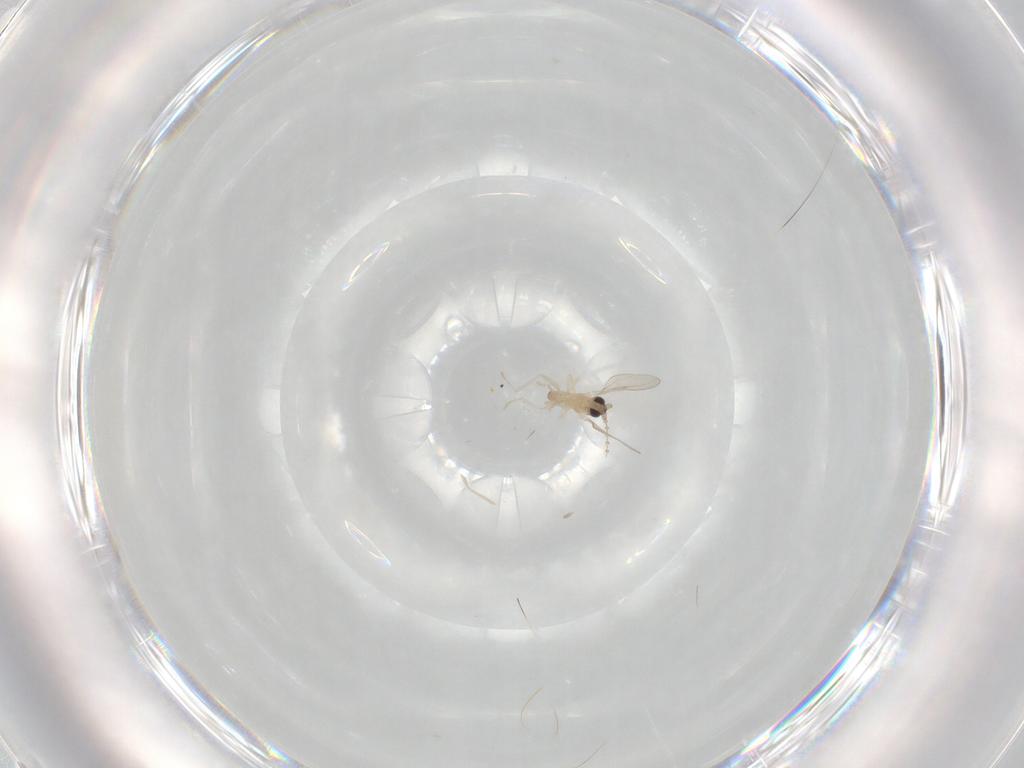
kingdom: Animalia
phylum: Arthropoda
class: Insecta
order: Diptera
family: Cecidomyiidae
